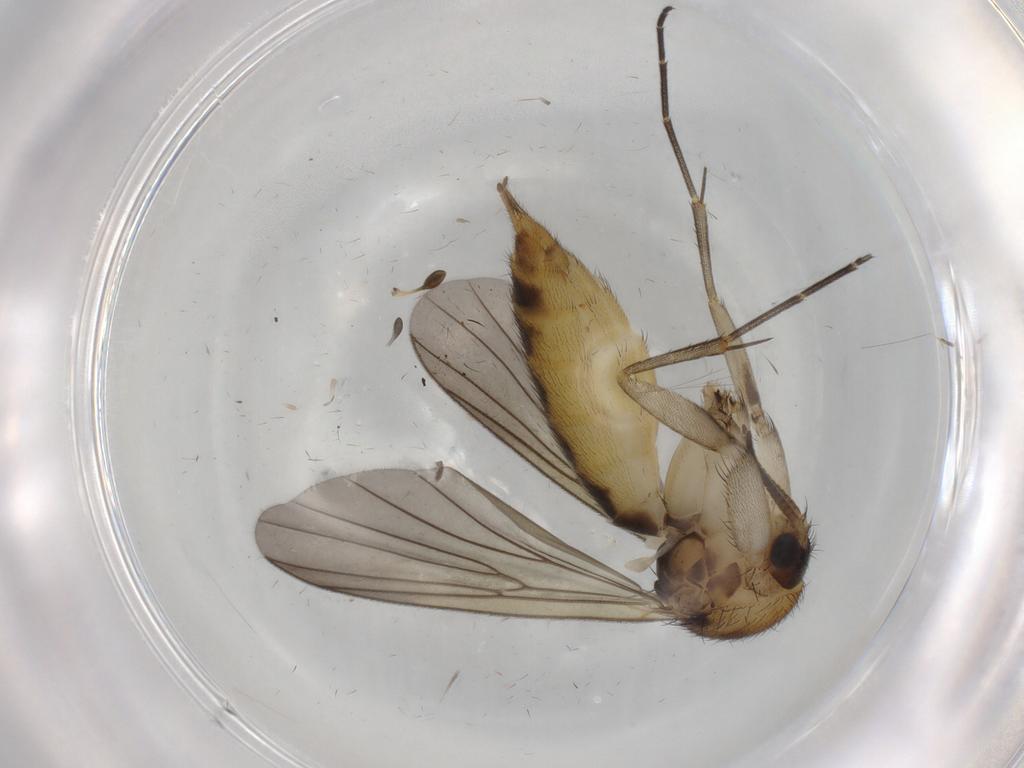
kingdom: Animalia
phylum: Arthropoda
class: Insecta
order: Diptera
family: Mycetophilidae
